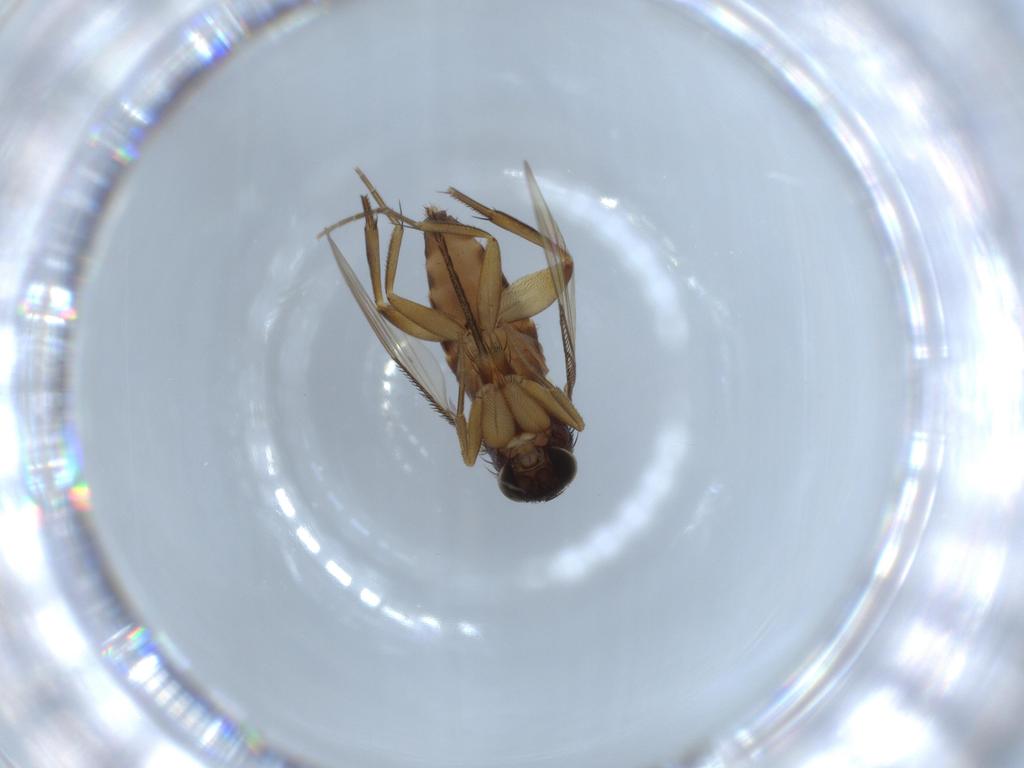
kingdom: Animalia
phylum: Arthropoda
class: Insecta
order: Diptera
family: Phoridae
